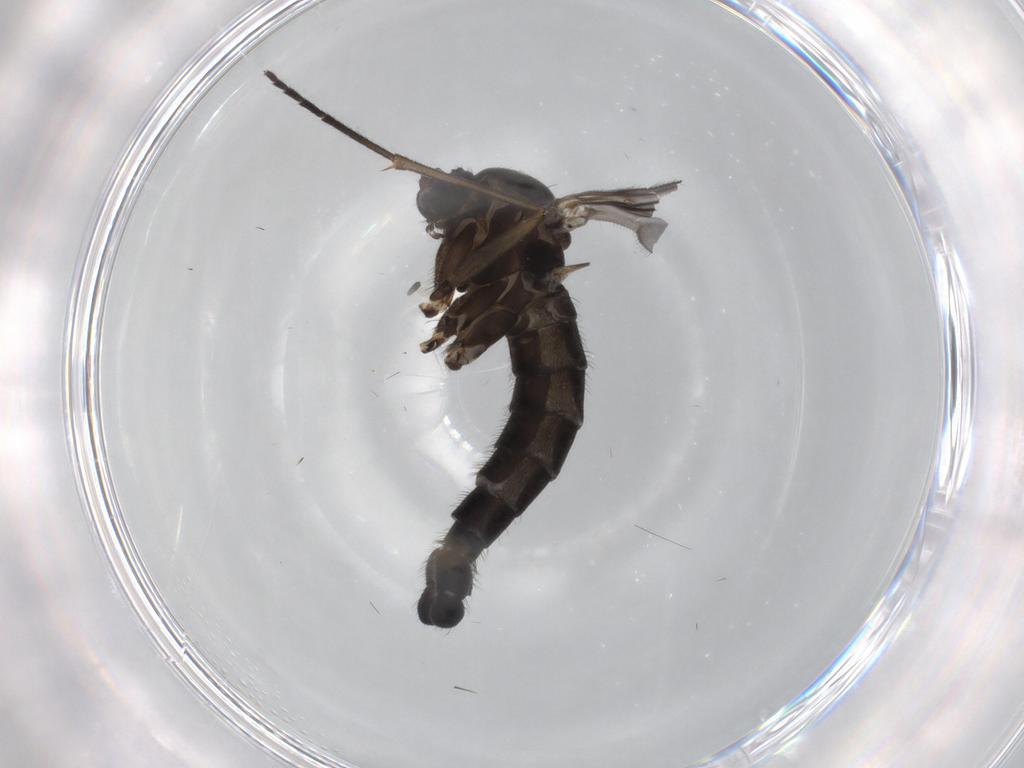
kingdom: Animalia
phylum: Arthropoda
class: Insecta
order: Diptera
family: Sciaridae
